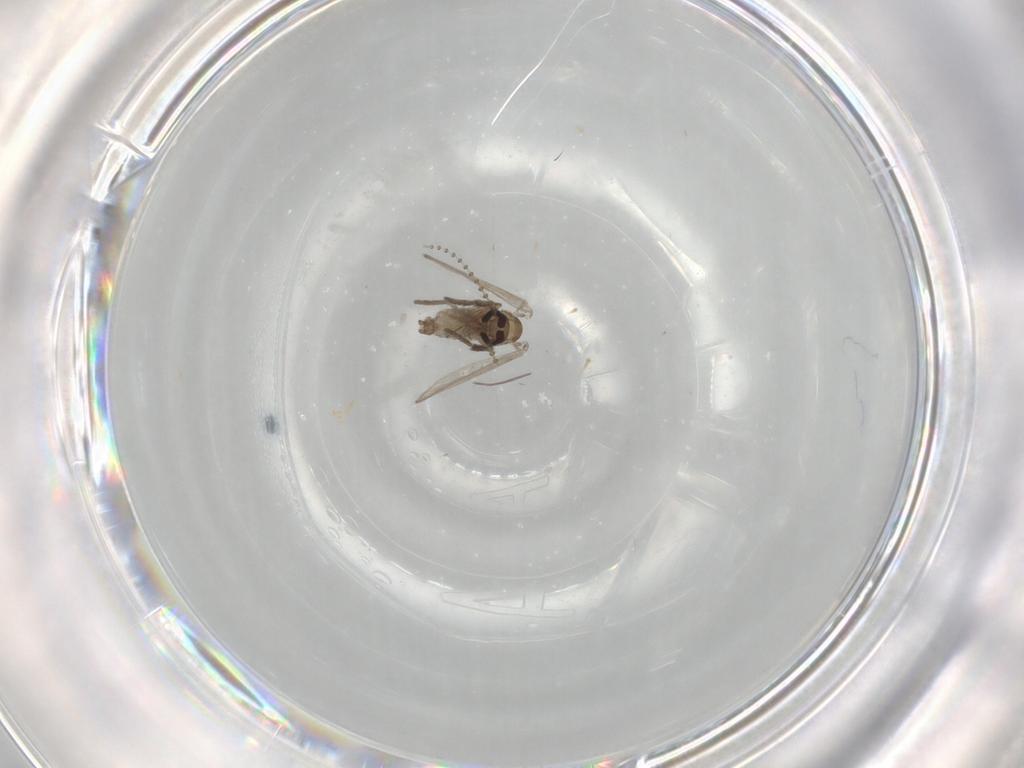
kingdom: Animalia
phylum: Arthropoda
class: Insecta
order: Diptera
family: Psychodidae
